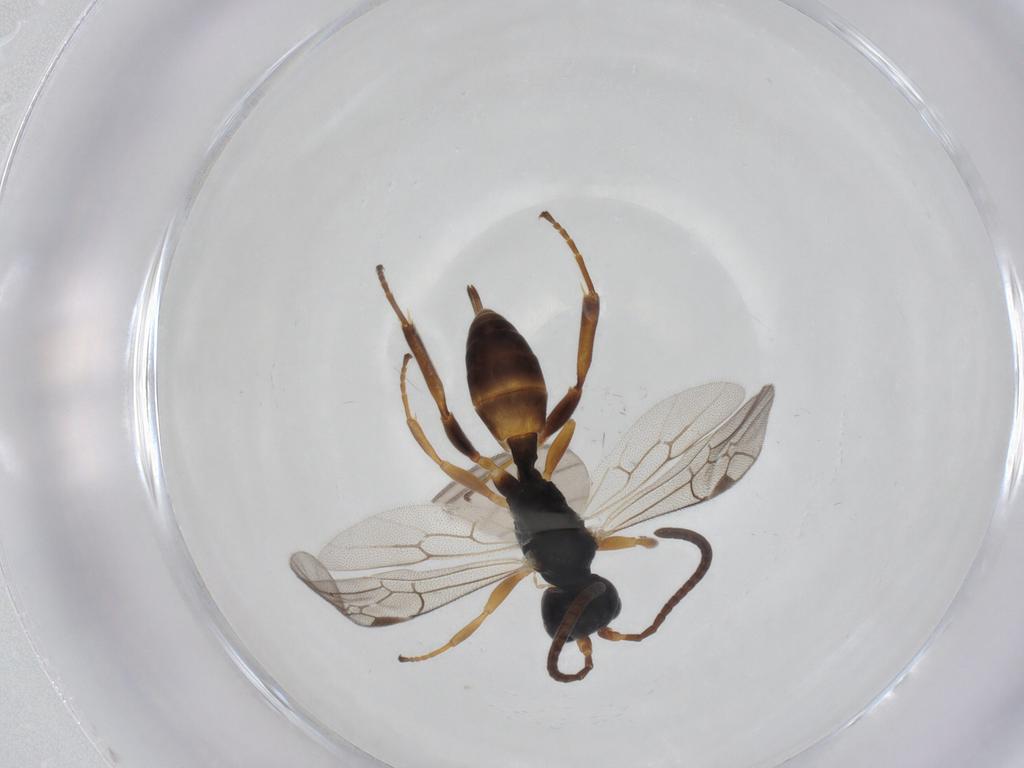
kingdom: Animalia
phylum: Arthropoda
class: Insecta
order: Hymenoptera
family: Ichneumonidae
